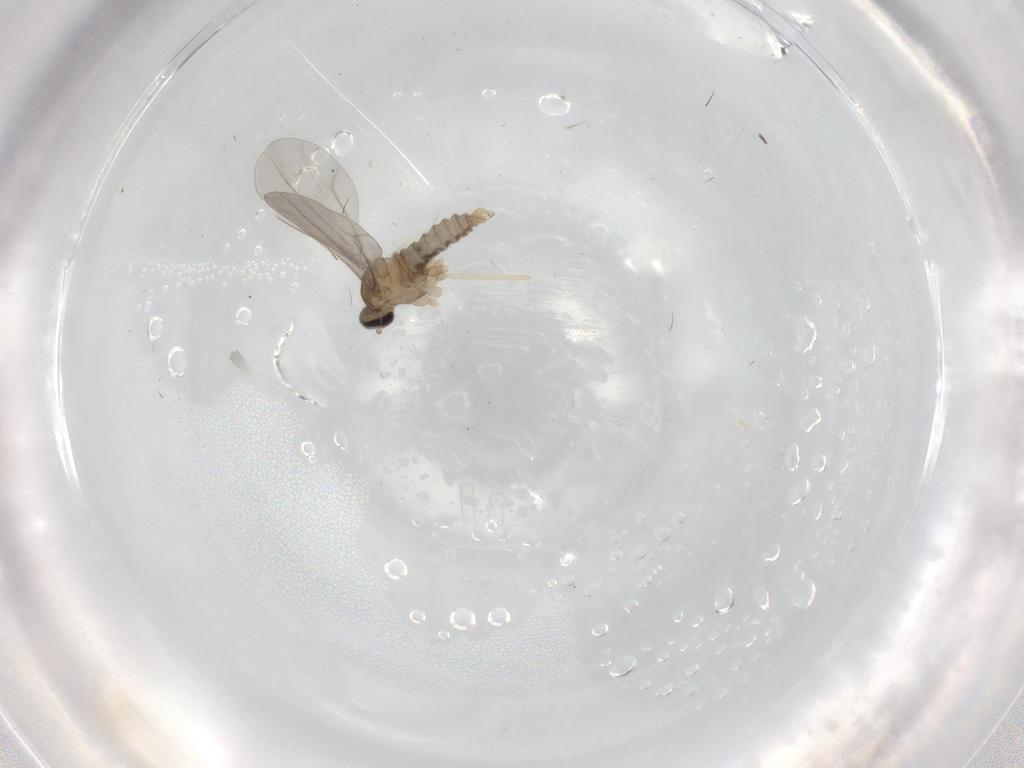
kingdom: Animalia
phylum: Arthropoda
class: Insecta
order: Diptera
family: Cecidomyiidae
